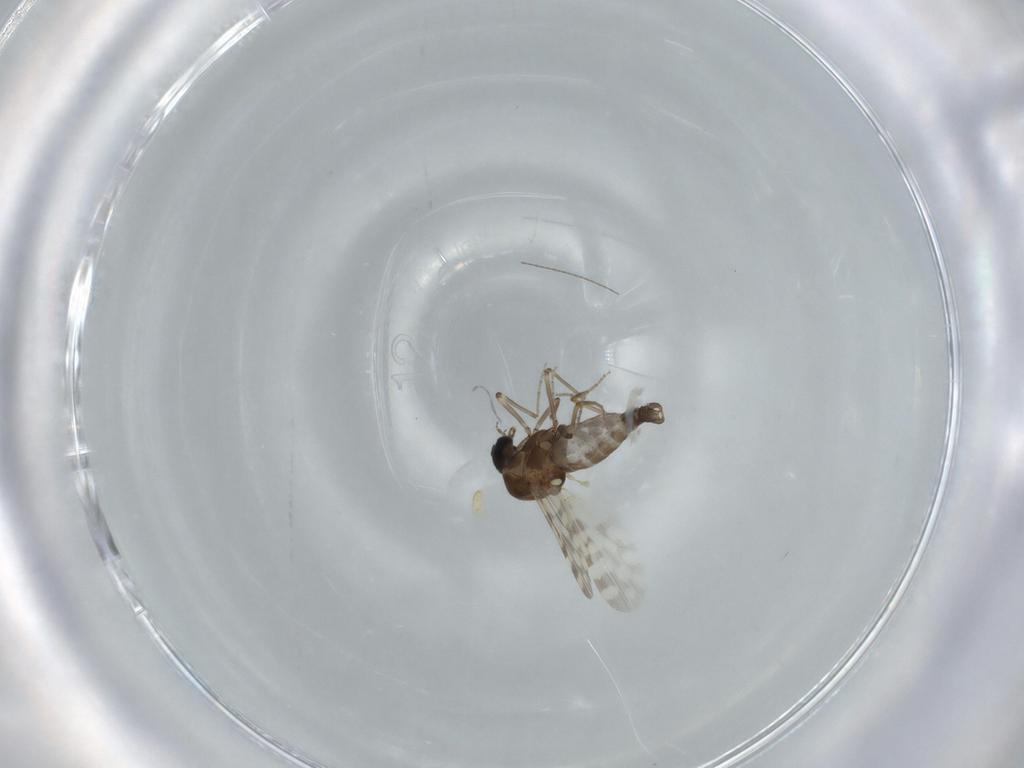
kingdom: Animalia
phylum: Arthropoda
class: Insecta
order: Diptera
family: Ceratopogonidae
